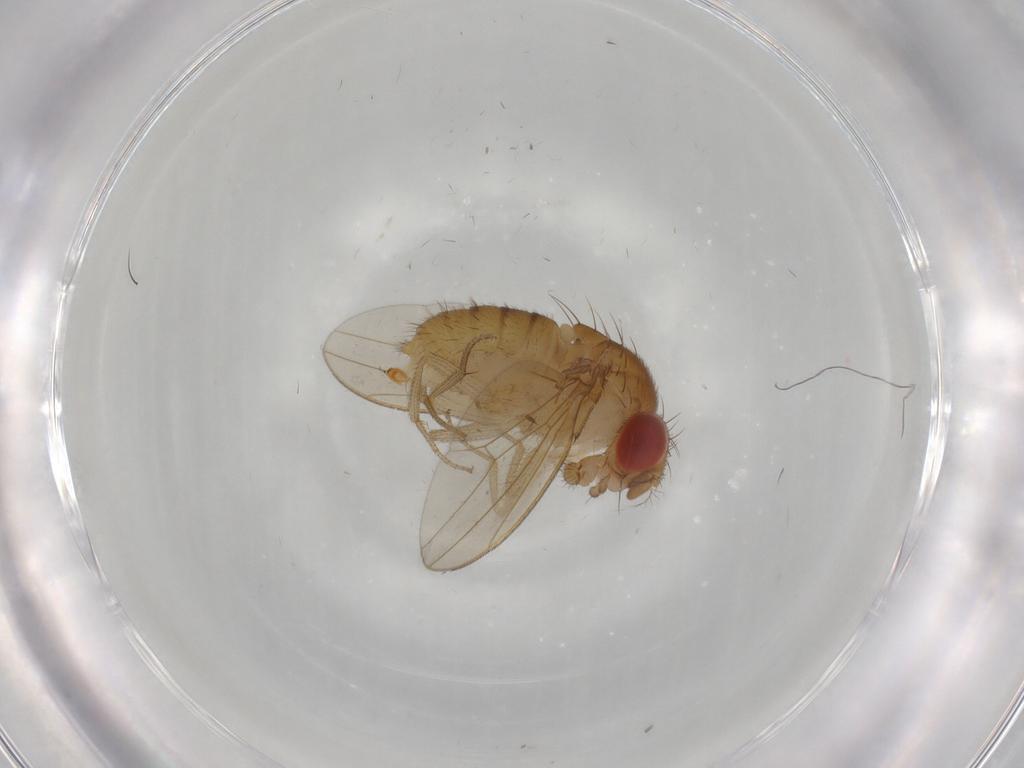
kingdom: Animalia
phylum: Arthropoda
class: Insecta
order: Diptera
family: Drosophilidae
